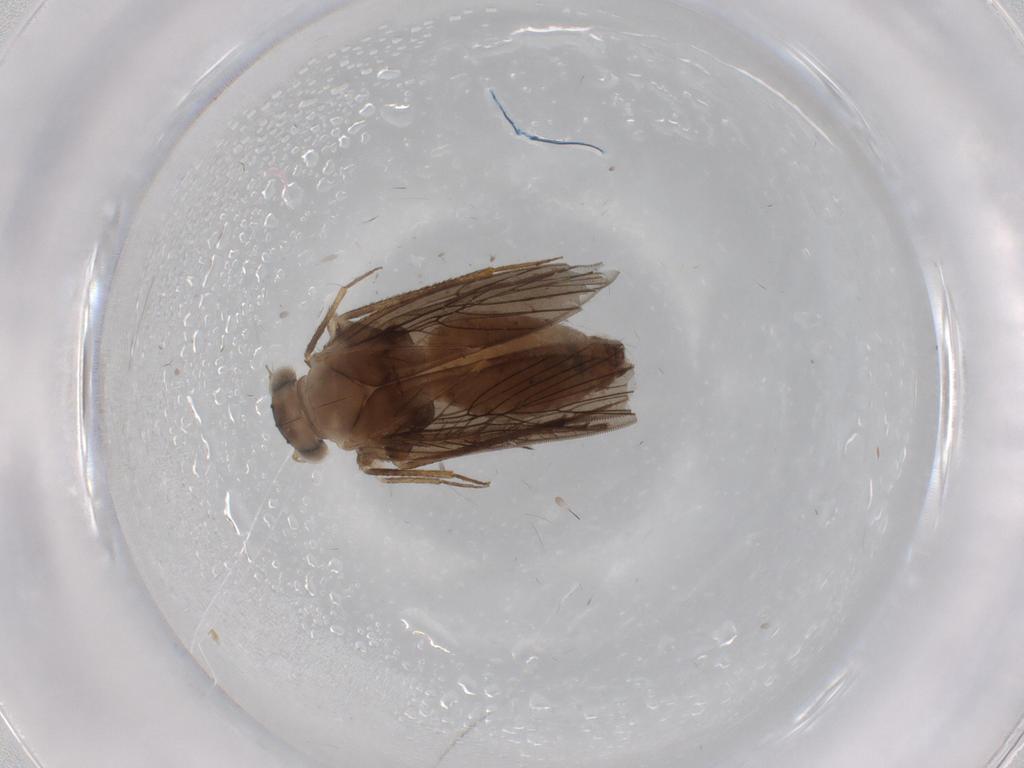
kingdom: Animalia
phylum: Arthropoda
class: Insecta
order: Psocodea
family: Lepidopsocidae
